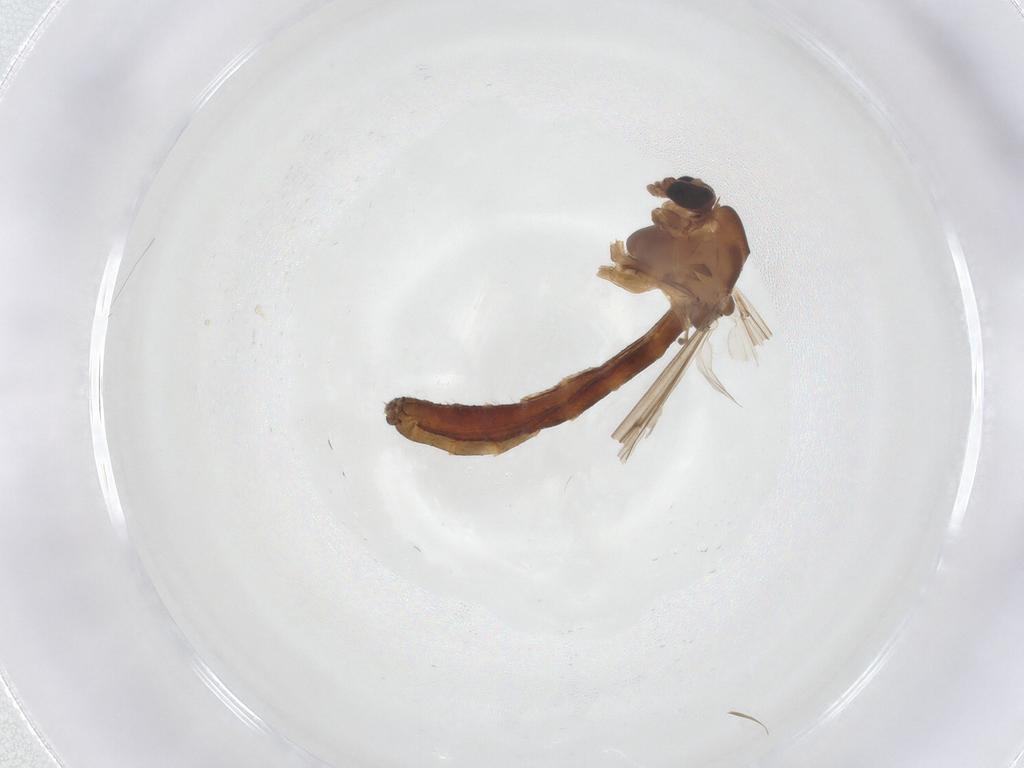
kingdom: Animalia
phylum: Arthropoda
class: Insecta
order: Diptera
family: Chironomidae
